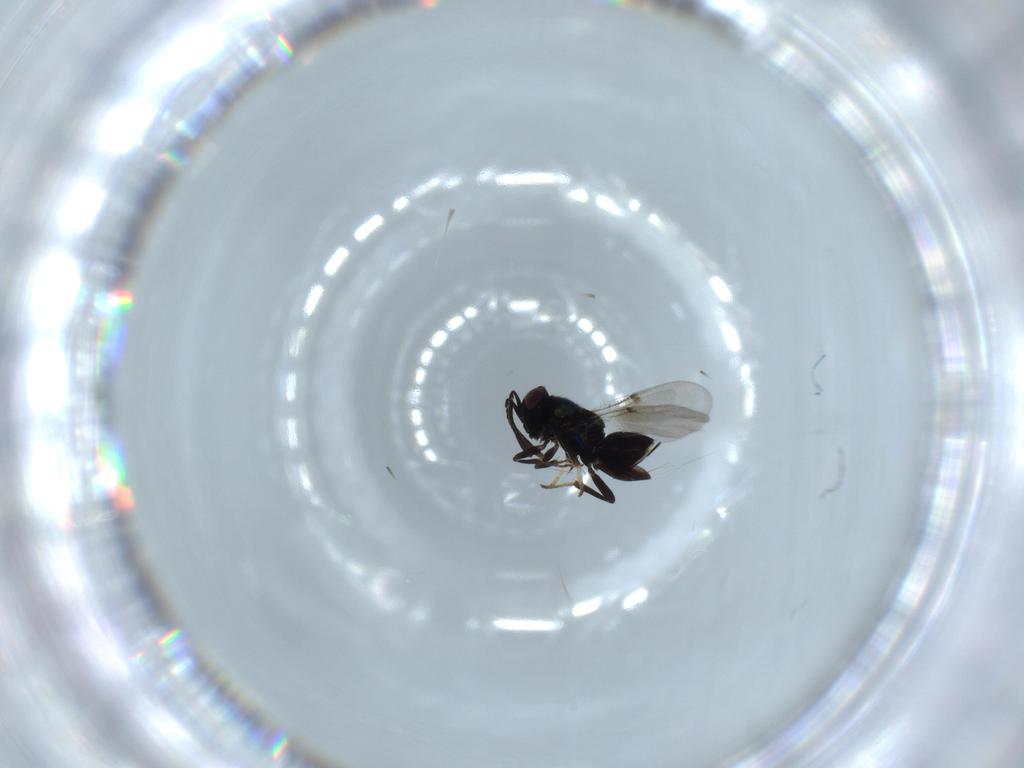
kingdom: Animalia
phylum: Arthropoda
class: Insecta
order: Hymenoptera
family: Encyrtidae
